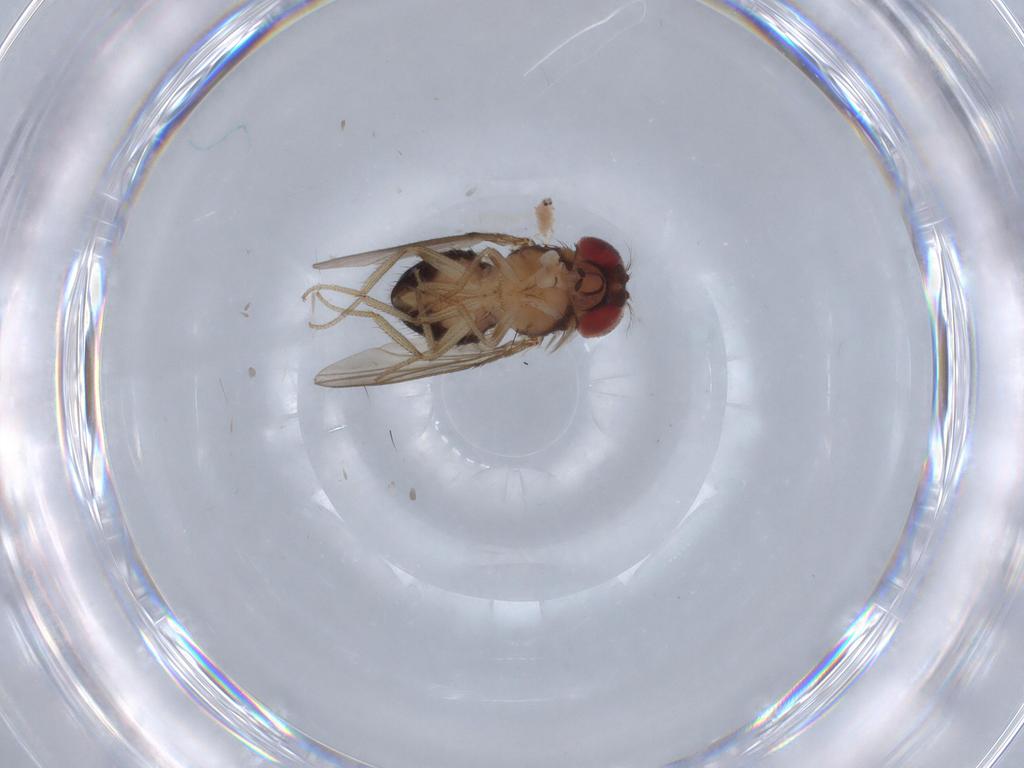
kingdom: Animalia
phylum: Arthropoda
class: Insecta
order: Diptera
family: Drosophilidae
